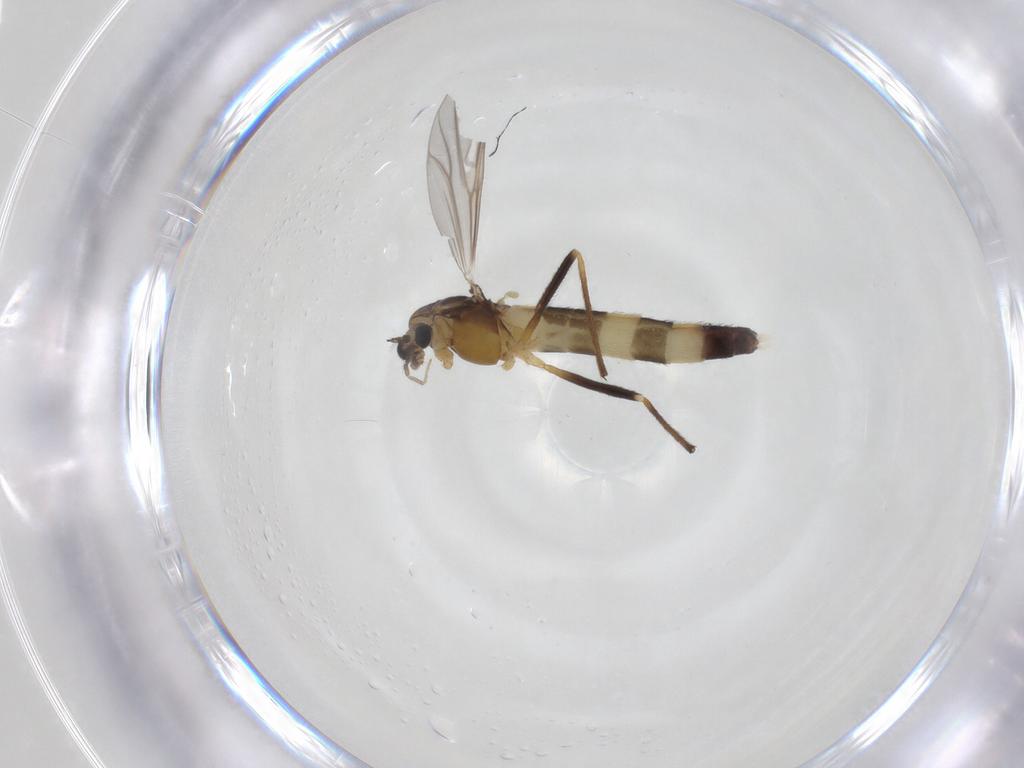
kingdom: Animalia
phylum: Arthropoda
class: Insecta
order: Diptera
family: Chironomidae
